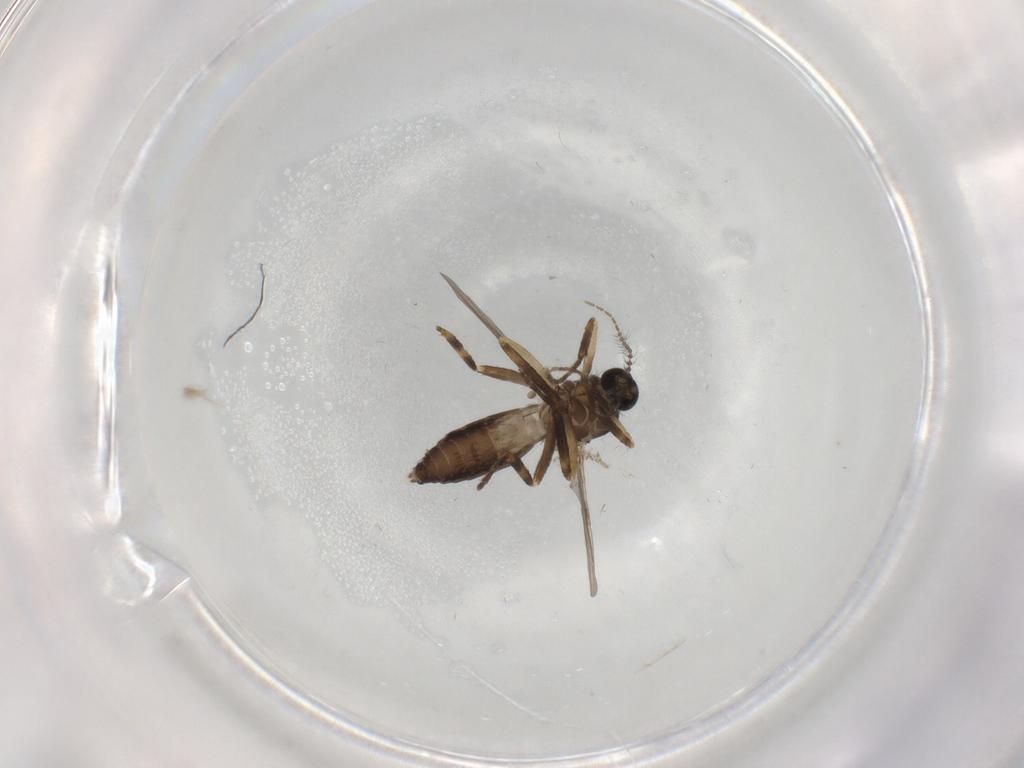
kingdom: Animalia
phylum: Arthropoda
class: Insecta
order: Diptera
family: Ceratopogonidae
